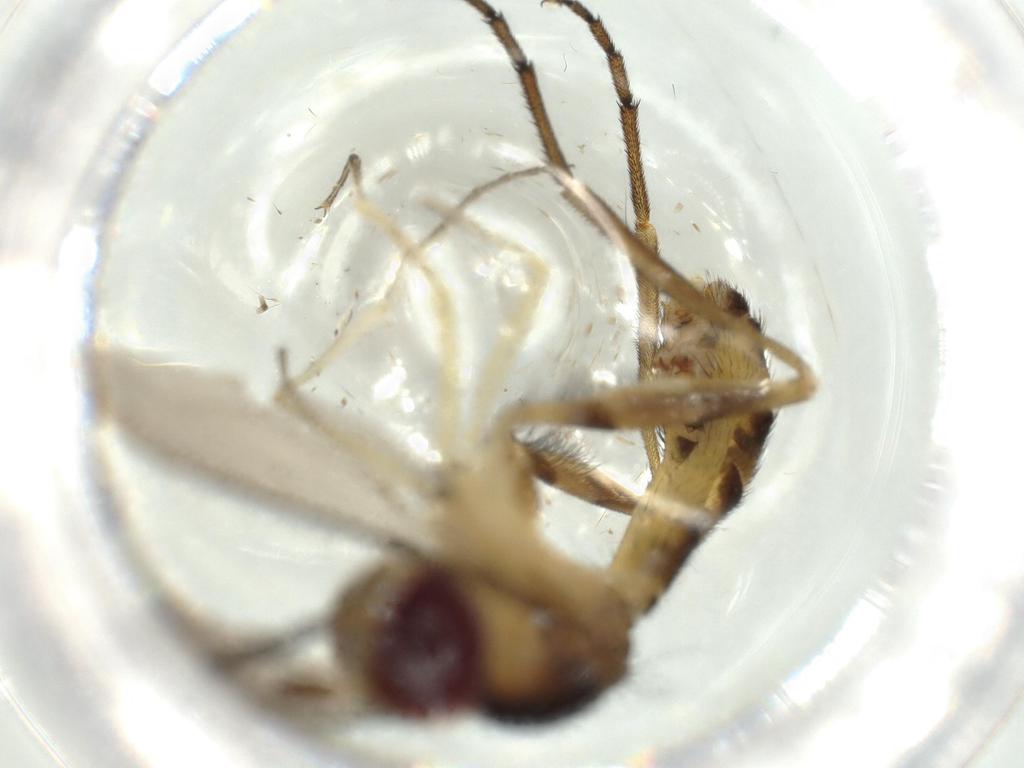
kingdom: Animalia
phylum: Arthropoda
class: Insecta
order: Diptera
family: Conopidae
